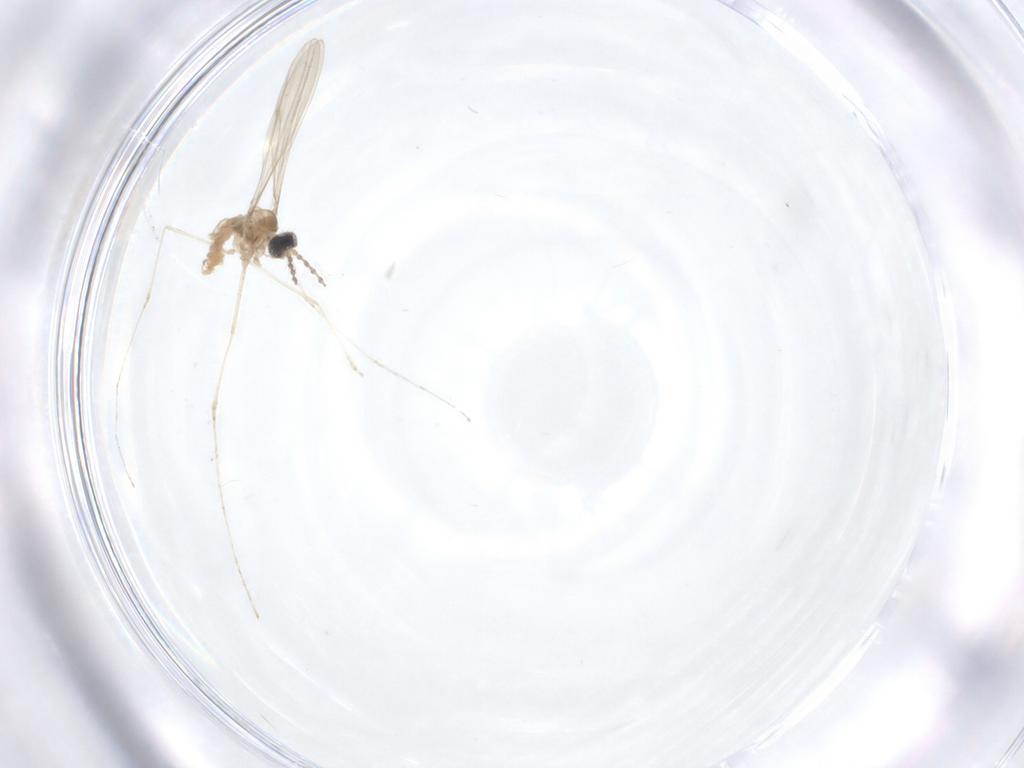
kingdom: Animalia
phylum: Arthropoda
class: Insecta
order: Diptera
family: Cecidomyiidae
